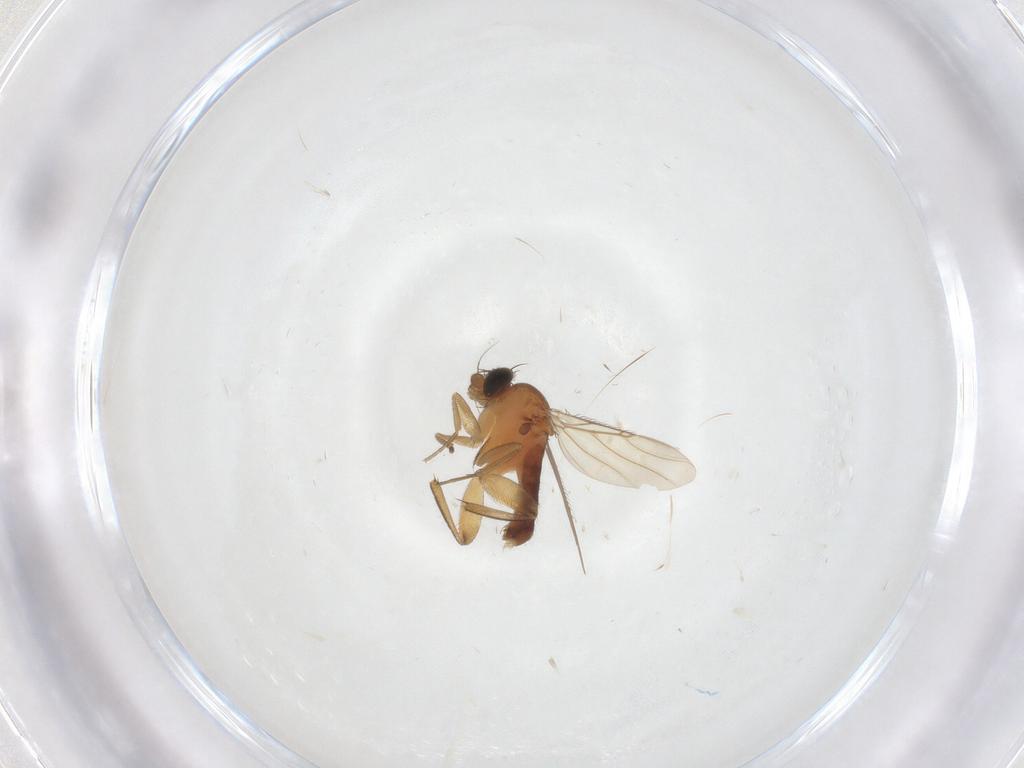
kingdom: Animalia
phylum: Arthropoda
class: Insecta
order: Diptera
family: Phoridae
